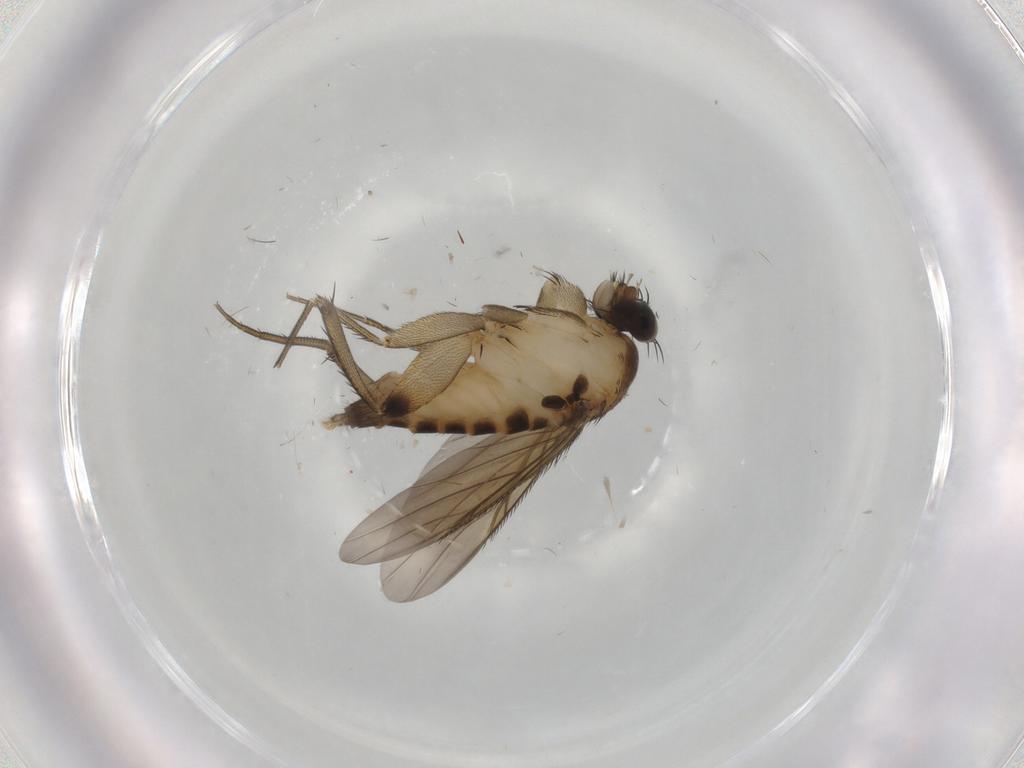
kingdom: Animalia
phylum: Arthropoda
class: Insecta
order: Diptera
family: Phoridae
